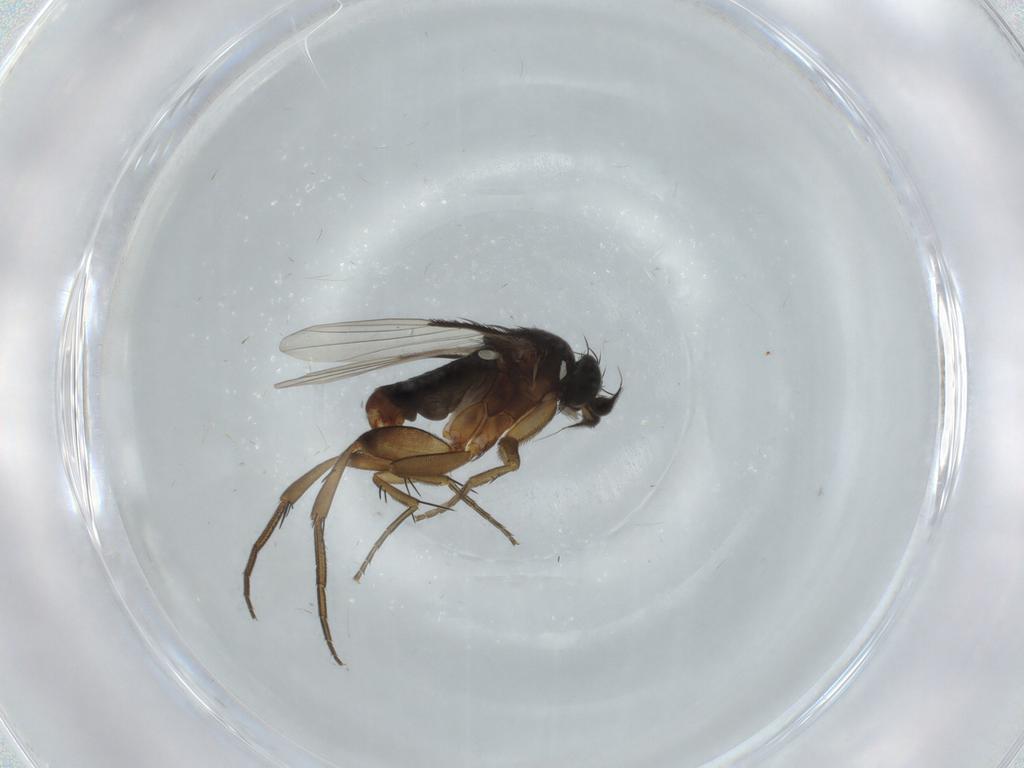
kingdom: Animalia
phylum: Arthropoda
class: Insecta
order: Diptera
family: Phoridae
